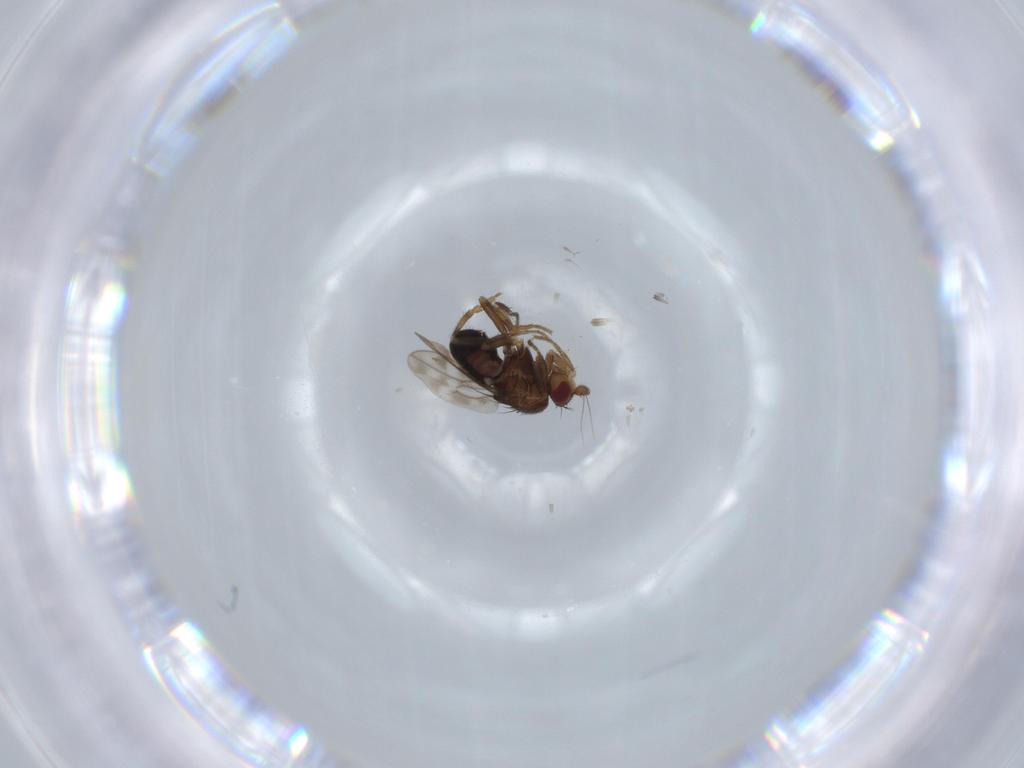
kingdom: Animalia
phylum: Arthropoda
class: Insecta
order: Diptera
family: Sphaeroceridae
